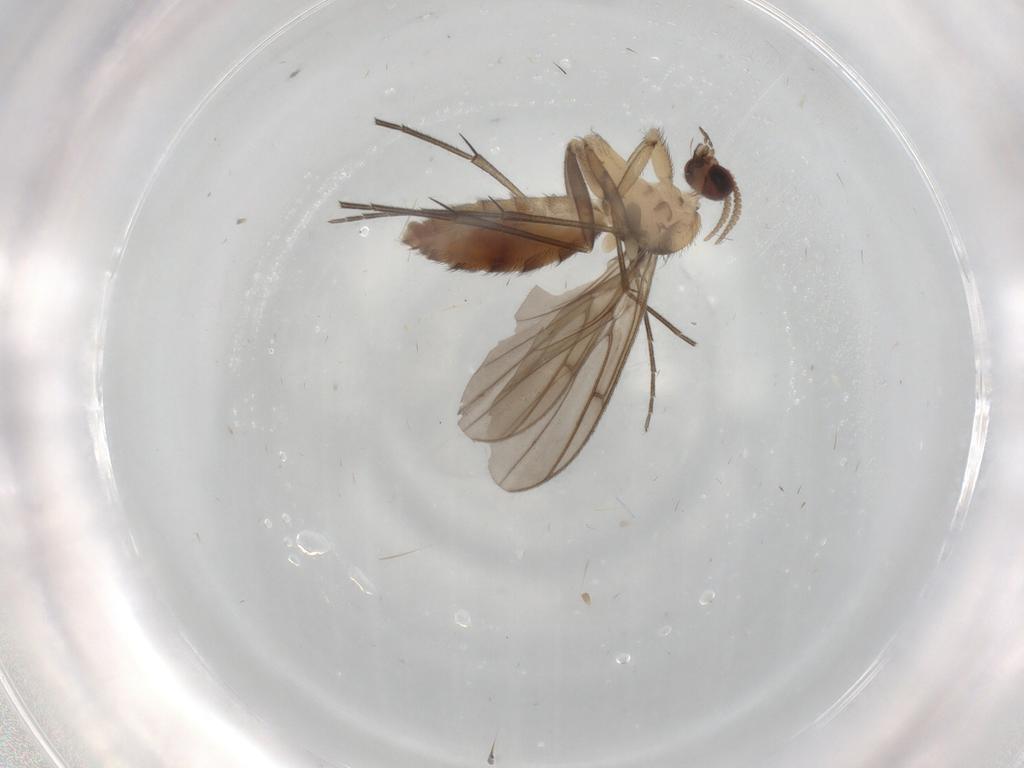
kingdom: Animalia
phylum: Arthropoda
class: Insecta
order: Diptera
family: Keroplatidae
